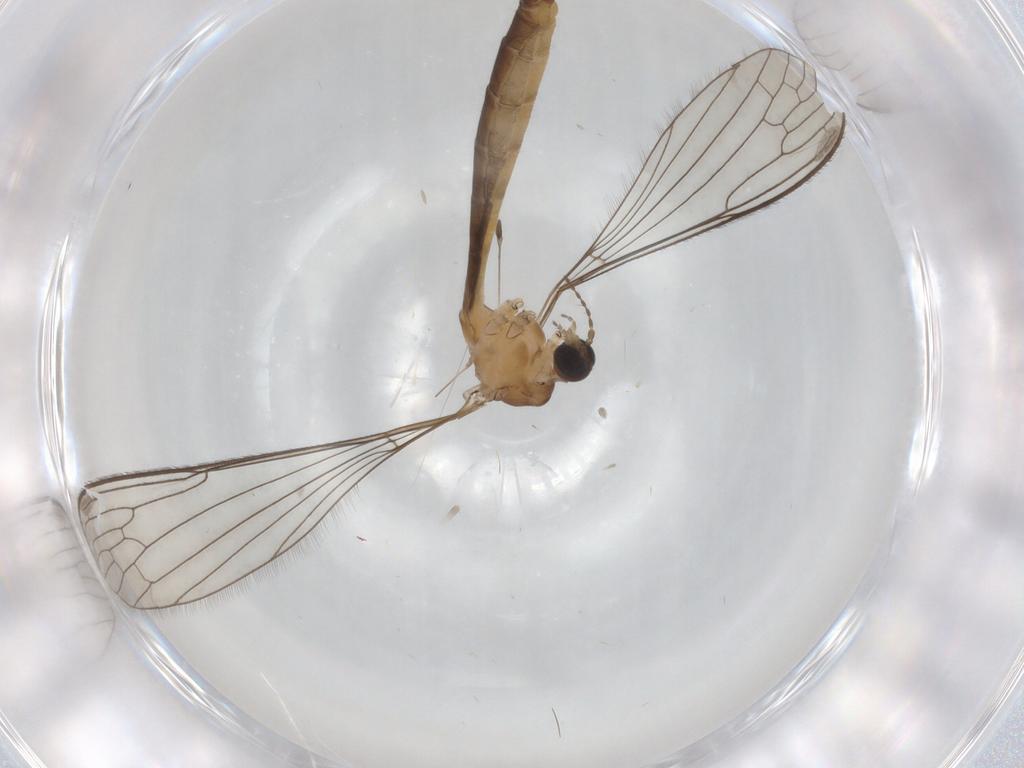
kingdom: Animalia
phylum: Arthropoda
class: Insecta
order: Diptera
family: Limoniidae
